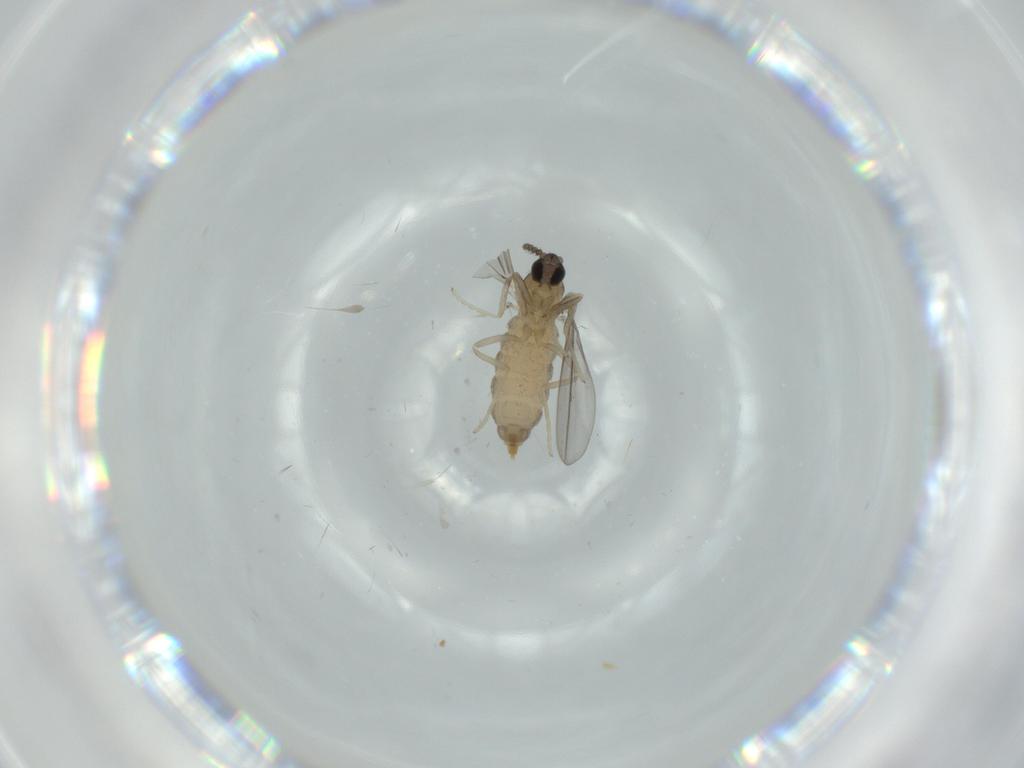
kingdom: Animalia
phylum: Arthropoda
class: Insecta
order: Diptera
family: Cecidomyiidae
